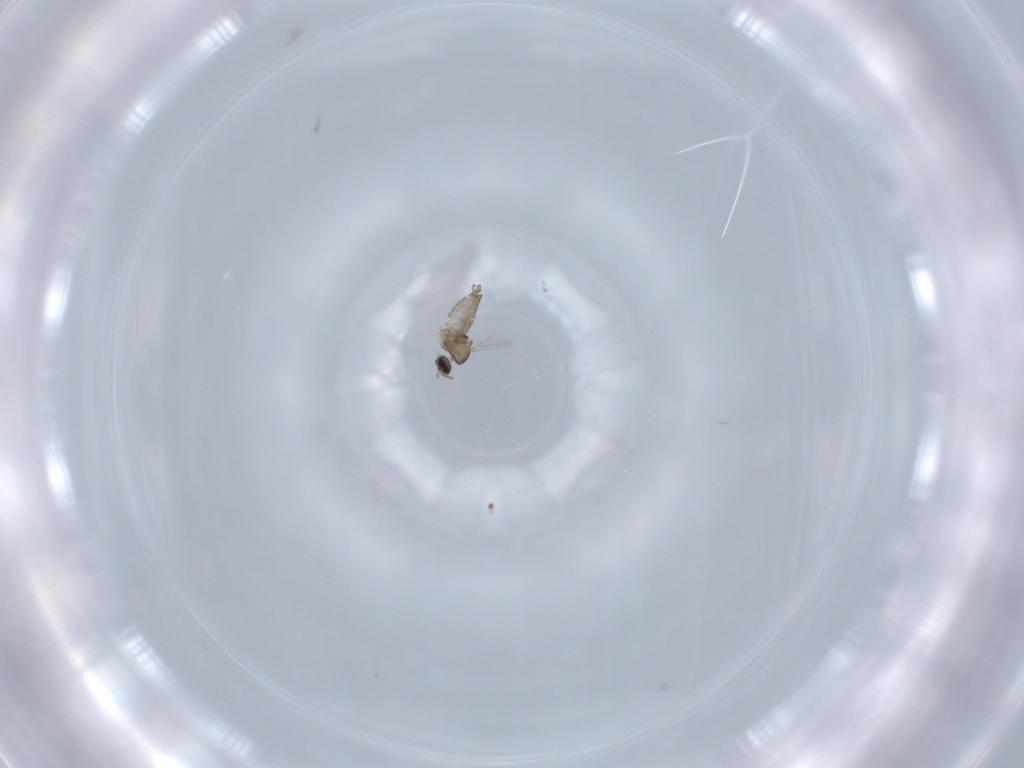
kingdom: Animalia
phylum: Arthropoda
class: Insecta
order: Diptera
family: Cecidomyiidae
